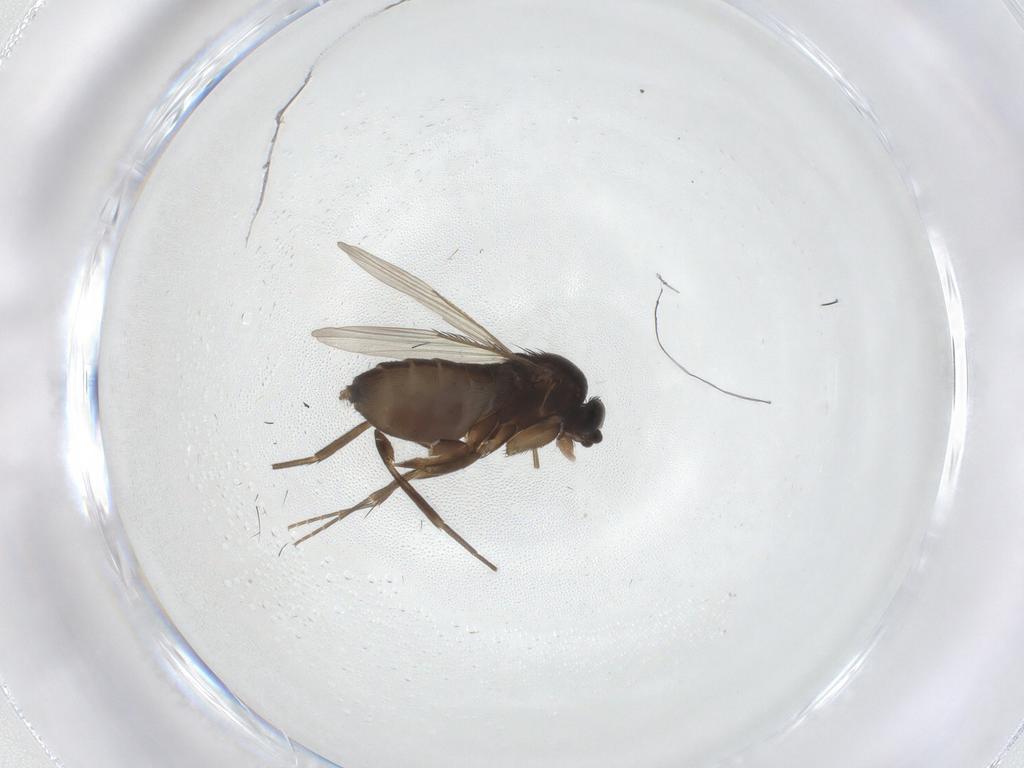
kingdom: Animalia
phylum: Arthropoda
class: Insecta
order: Diptera
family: Phoridae
